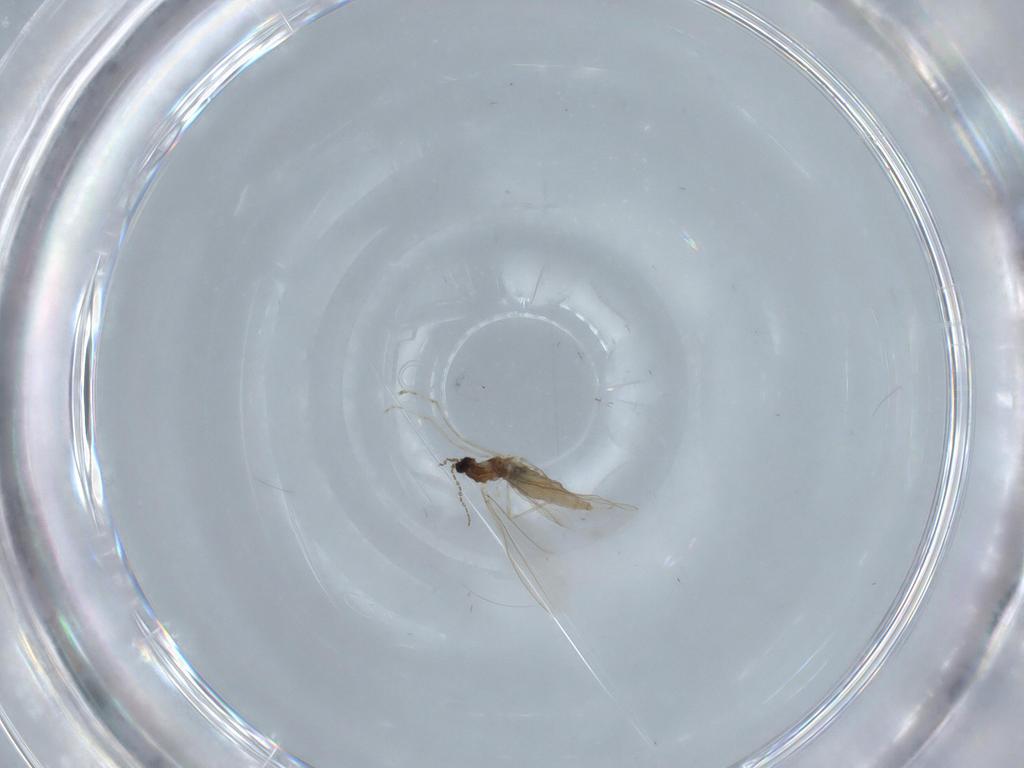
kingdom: Animalia
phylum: Arthropoda
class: Insecta
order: Diptera
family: Cecidomyiidae
